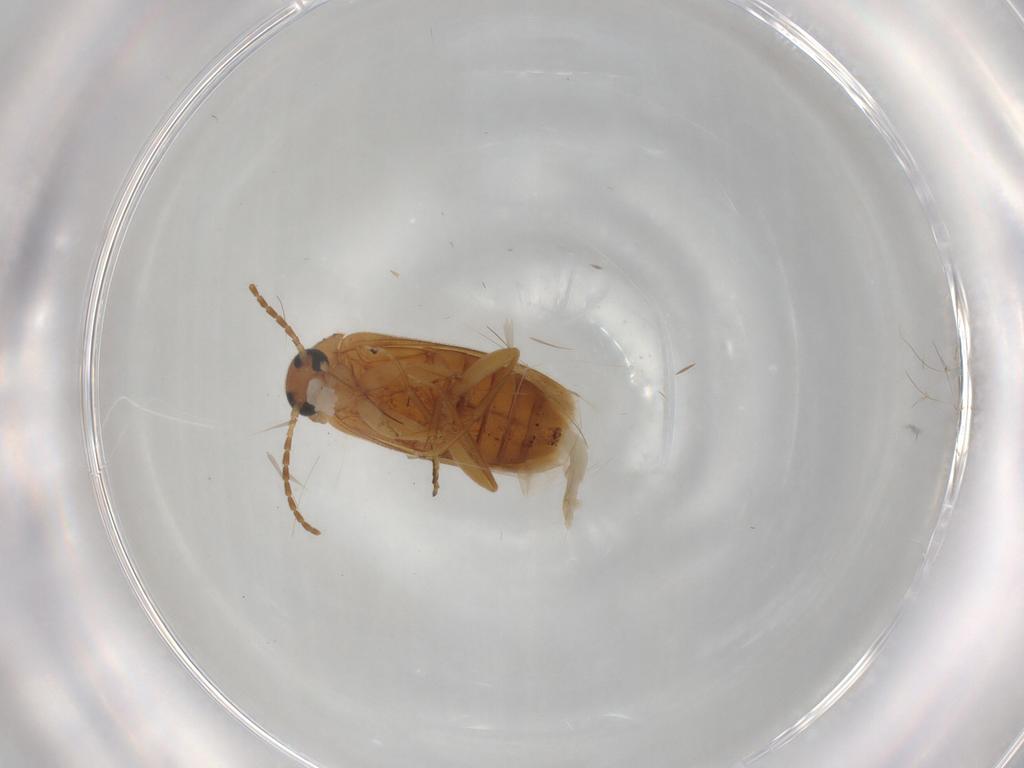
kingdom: Animalia
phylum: Arthropoda
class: Insecta
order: Coleoptera
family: Scraptiidae
